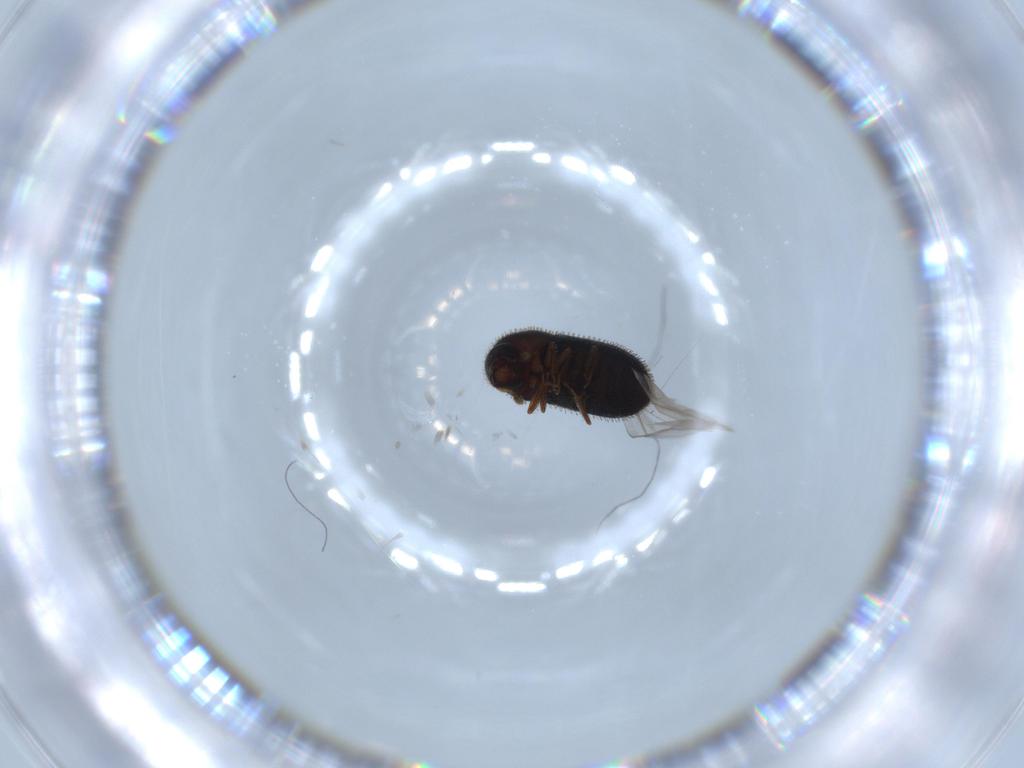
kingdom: Animalia
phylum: Arthropoda
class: Insecta
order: Coleoptera
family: Curculionidae
